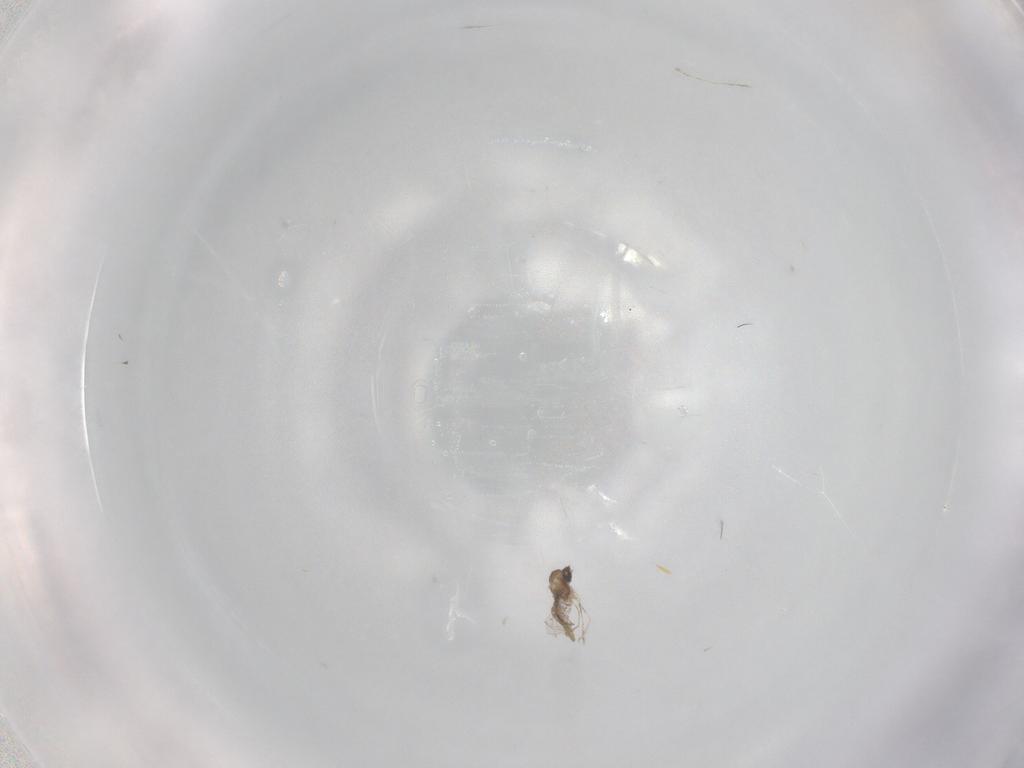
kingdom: Animalia
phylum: Arthropoda
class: Insecta
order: Diptera
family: Cecidomyiidae
